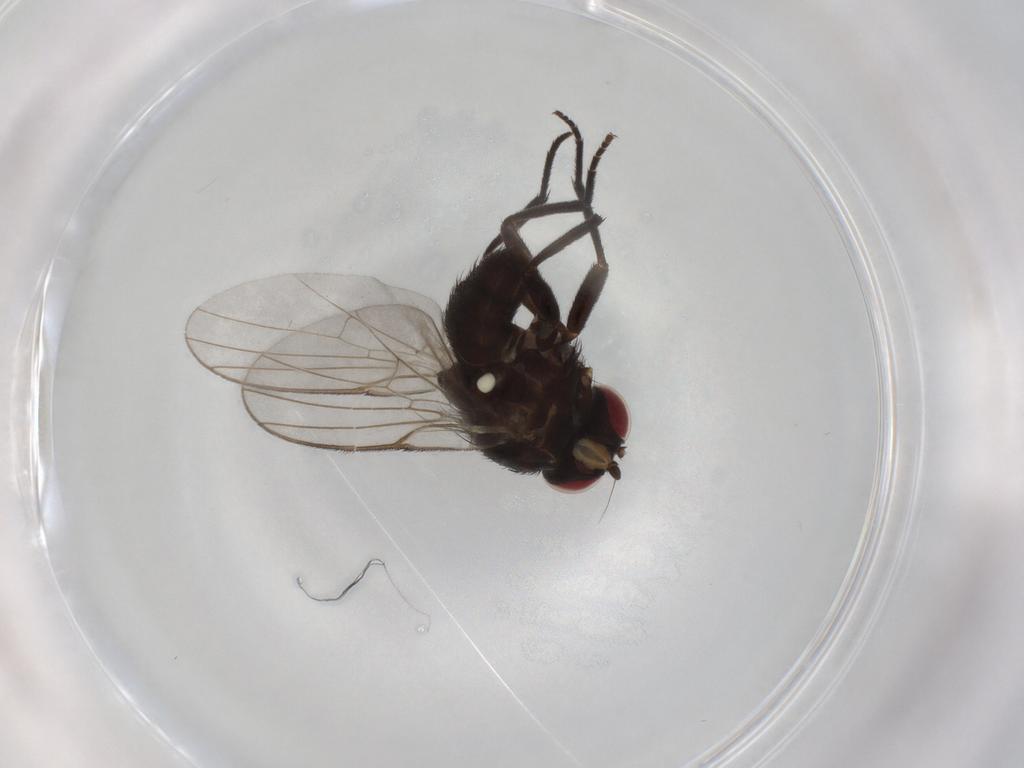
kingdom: Animalia
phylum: Arthropoda
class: Insecta
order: Diptera
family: Agromyzidae
